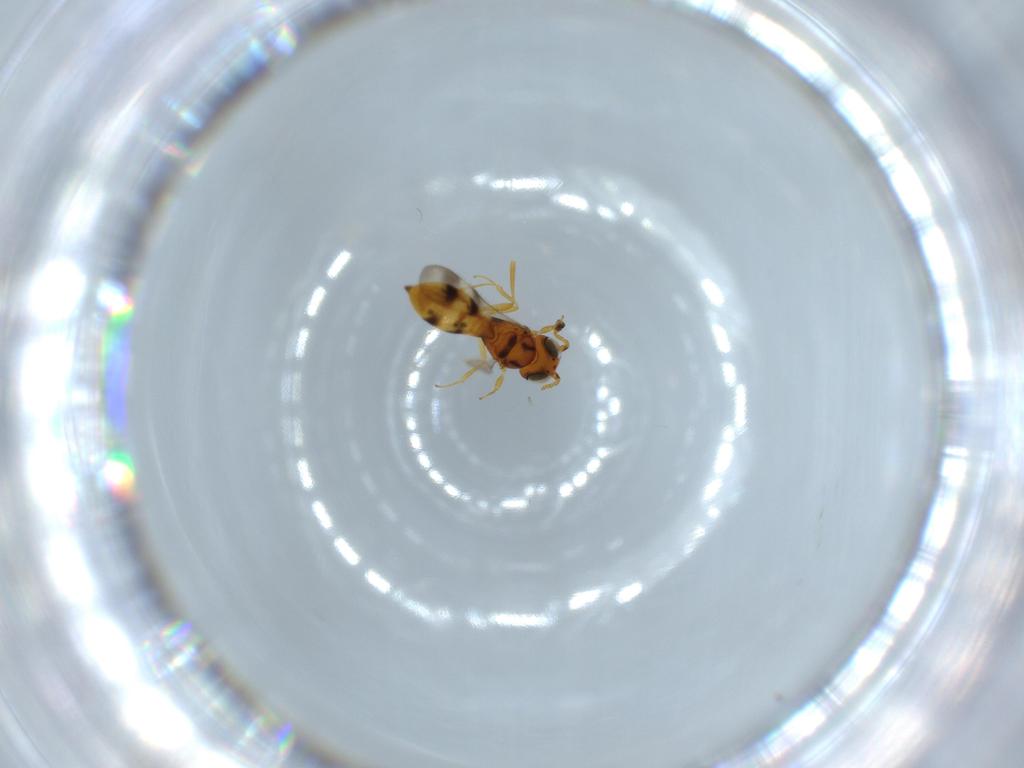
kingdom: Animalia
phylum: Arthropoda
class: Insecta
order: Hymenoptera
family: Scelionidae
